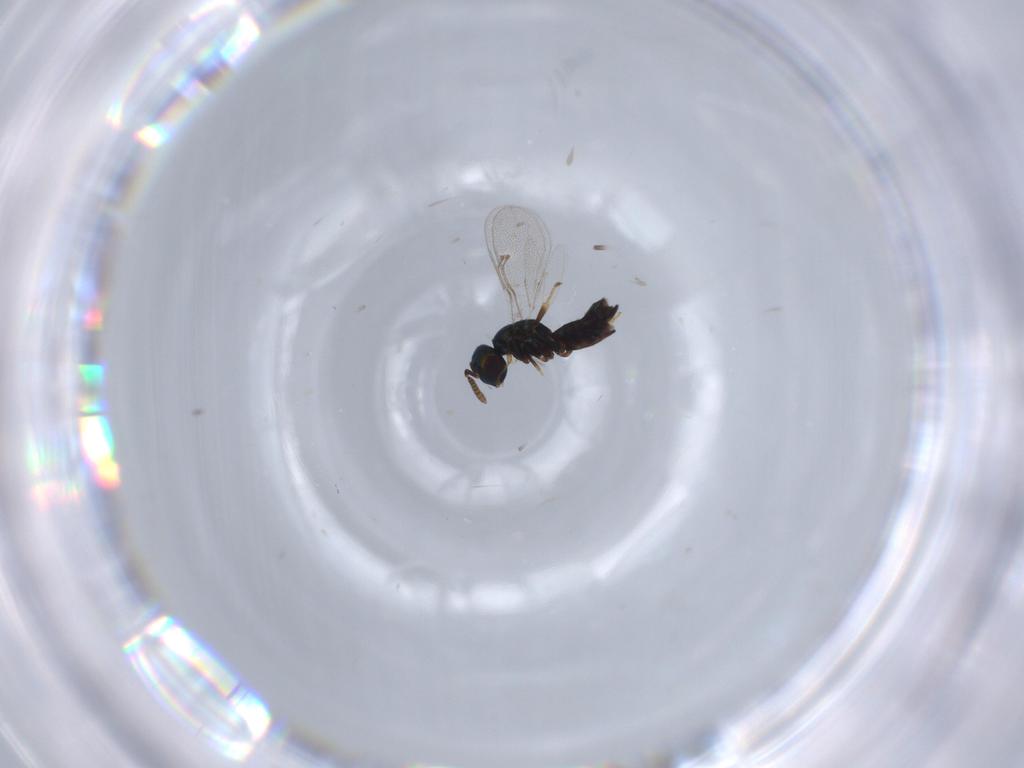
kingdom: Animalia
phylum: Arthropoda
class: Insecta
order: Hymenoptera
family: Pteromalidae
